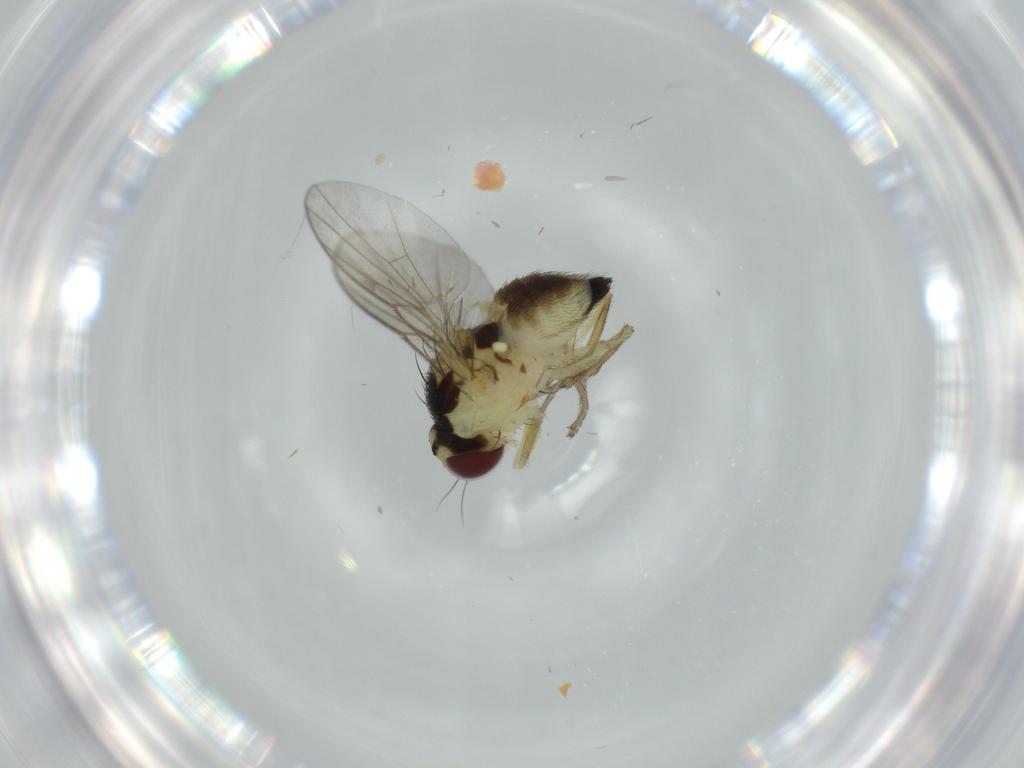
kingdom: Animalia
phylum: Arthropoda
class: Insecta
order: Diptera
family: Agromyzidae
